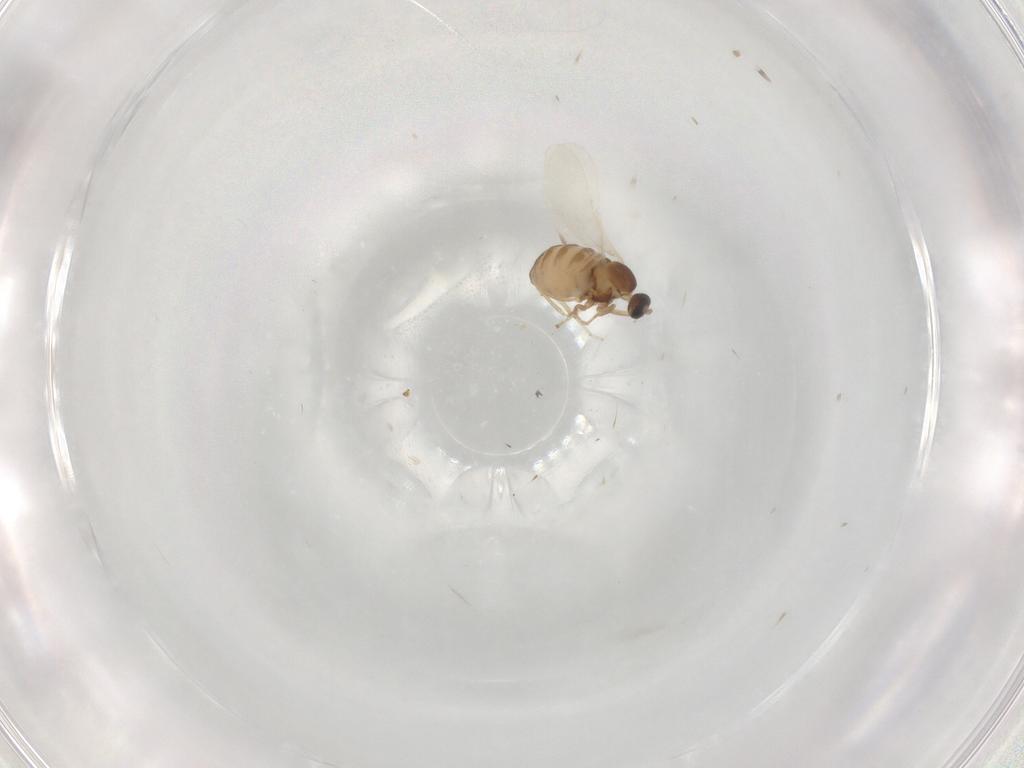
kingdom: Animalia
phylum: Arthropoda
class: Insecta
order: Diptera
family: Cecidomyiidae
